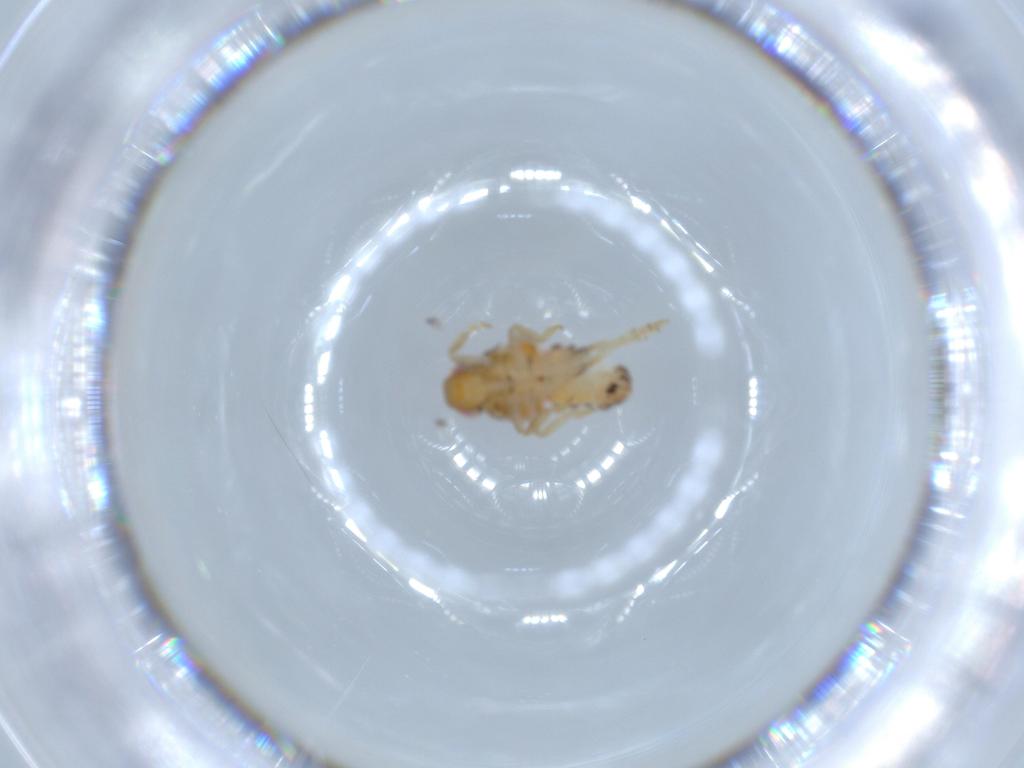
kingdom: Animalia
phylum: Arthropoda
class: Insecta
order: Hemiptera
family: Issidae
